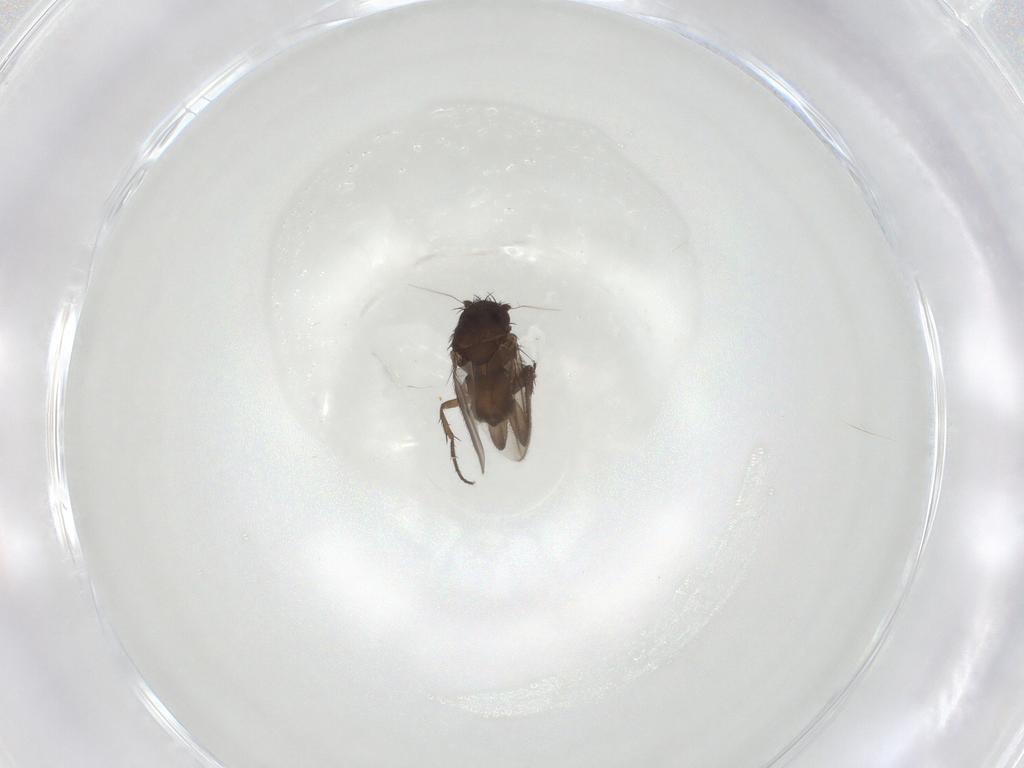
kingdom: Animalia
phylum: Arthropoda
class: Insecta
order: Diptera
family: Sphaeroceridae
